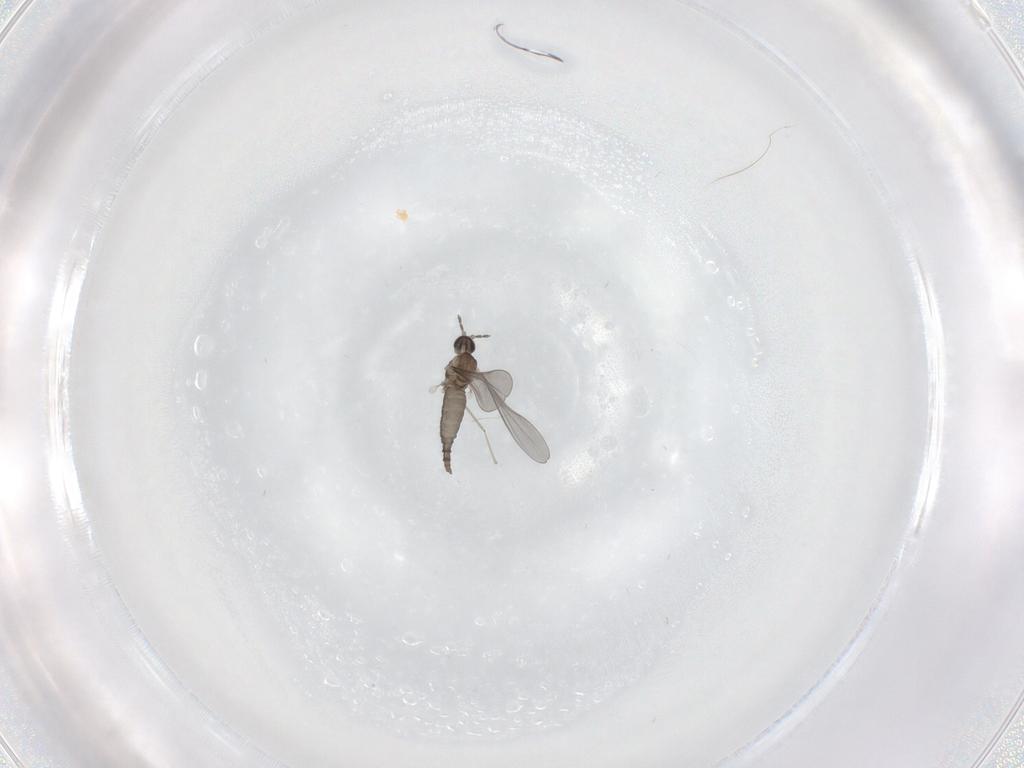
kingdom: Animalia
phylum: Arthropoda
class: Insecta
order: Diptera
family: Cecidomyiidae
